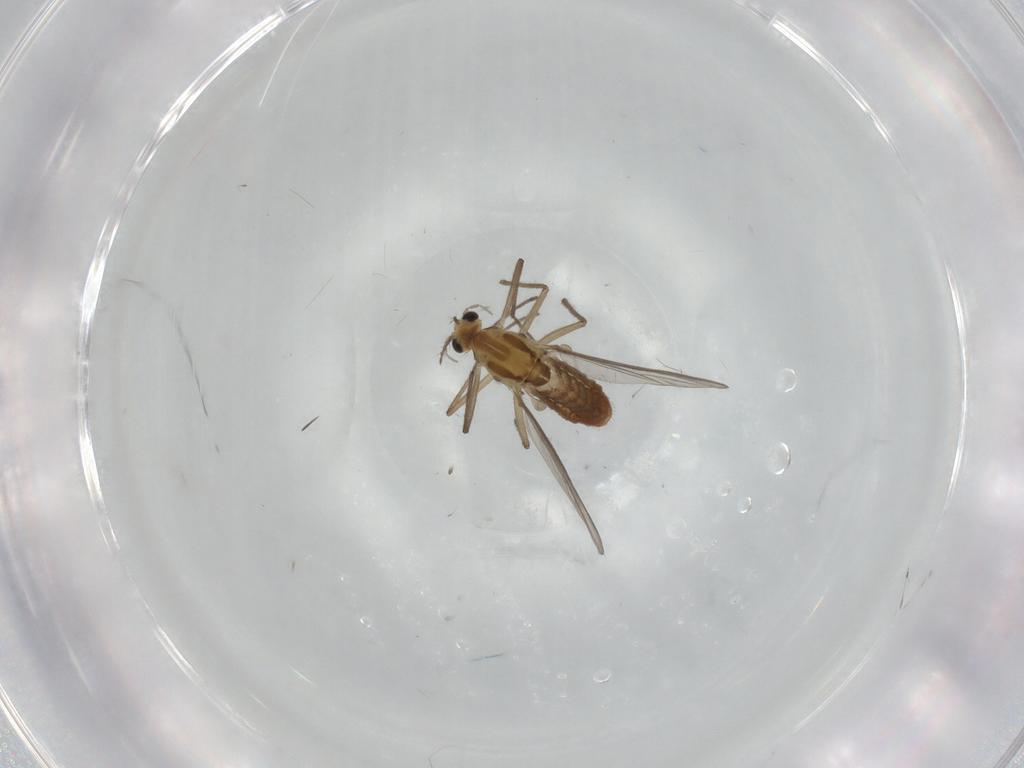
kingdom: Animalia
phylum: Arthropoda
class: Insecta
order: Diptera
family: Chironomidae
